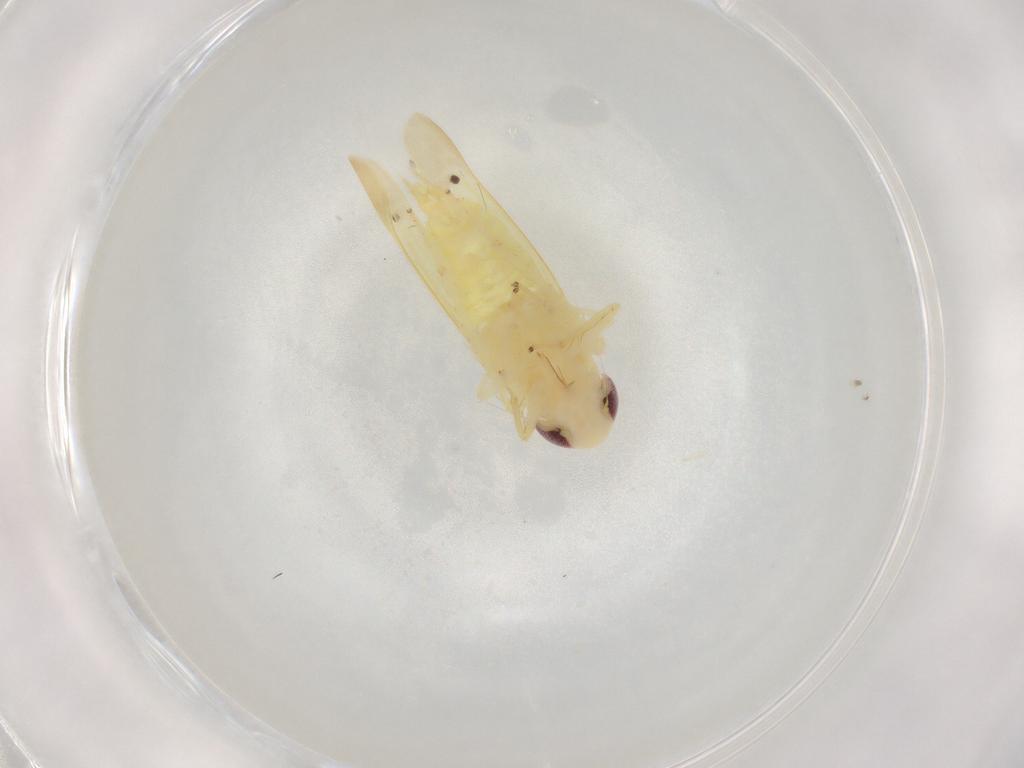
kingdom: Animalia
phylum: Arthropoda
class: Insecta
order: Hemiptera
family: Cicadellidae
